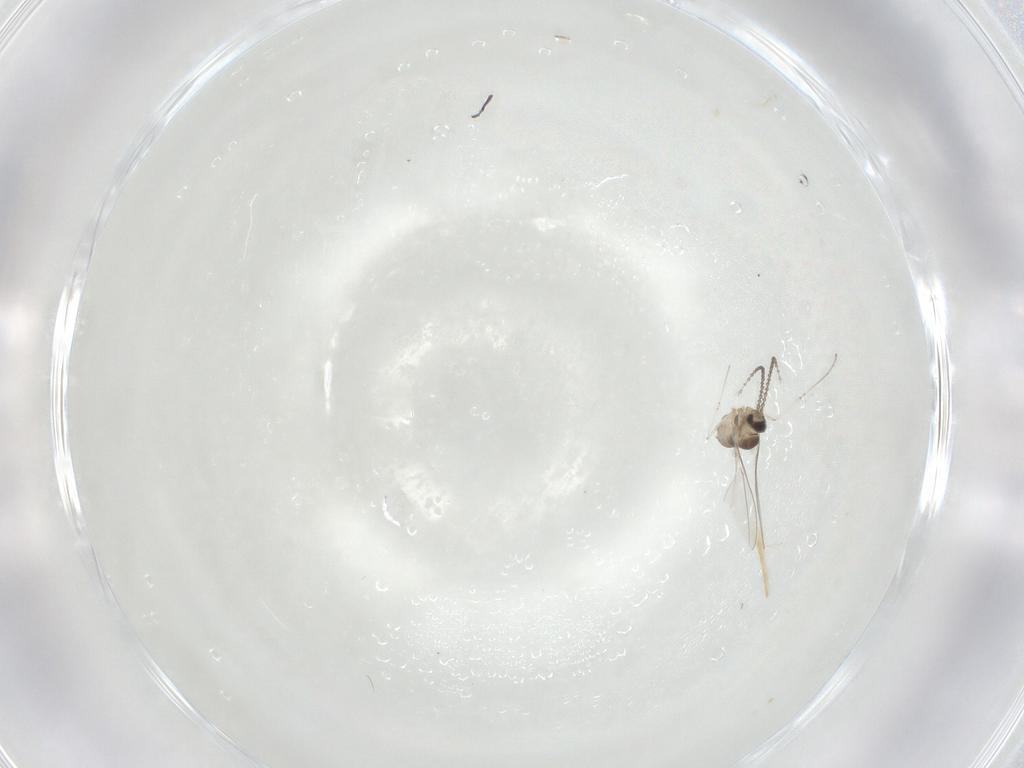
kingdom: Animalia
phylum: Arthropoda
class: Insecta
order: Diptera
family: Cecidomyiidae
